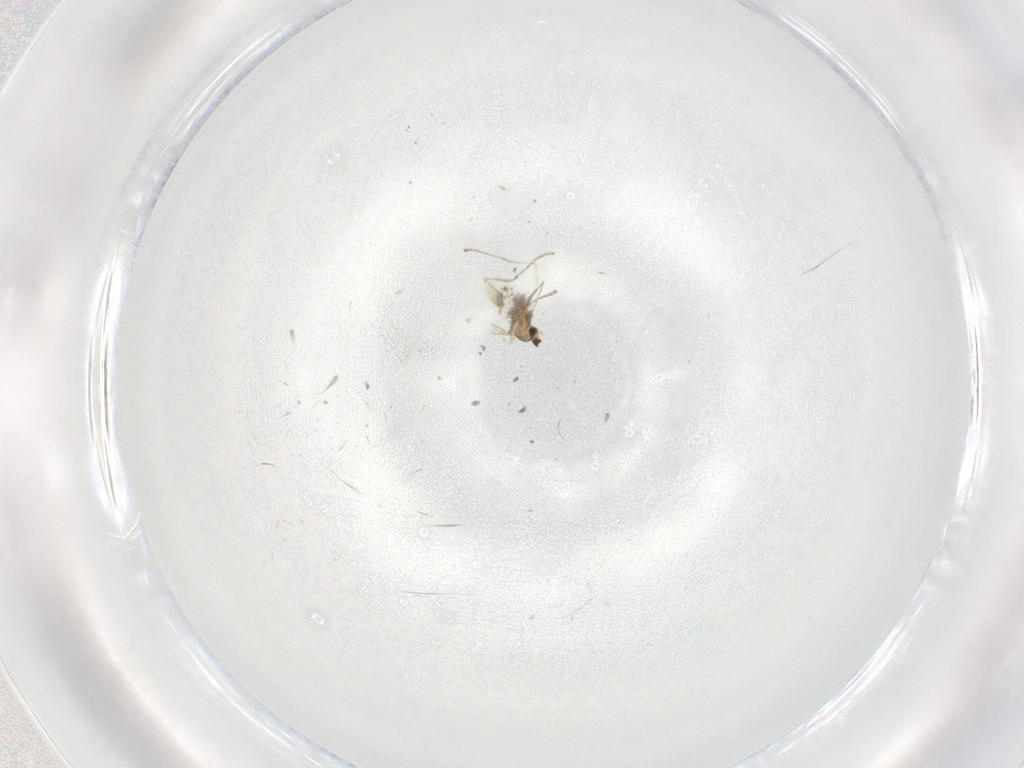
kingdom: Animalia
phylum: Arthropoda
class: Insecta
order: Diptera
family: Cecidomyiidae
